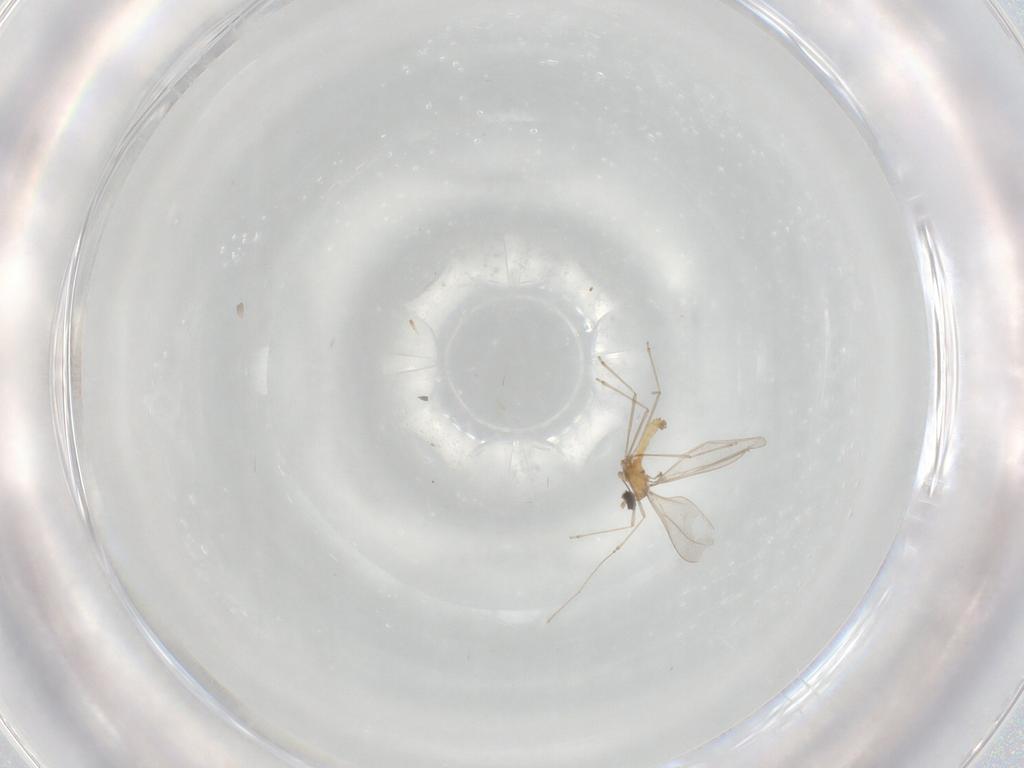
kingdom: Animalia
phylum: Arthropoda
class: Insecta
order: Diptera
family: Cecidomyiidae
